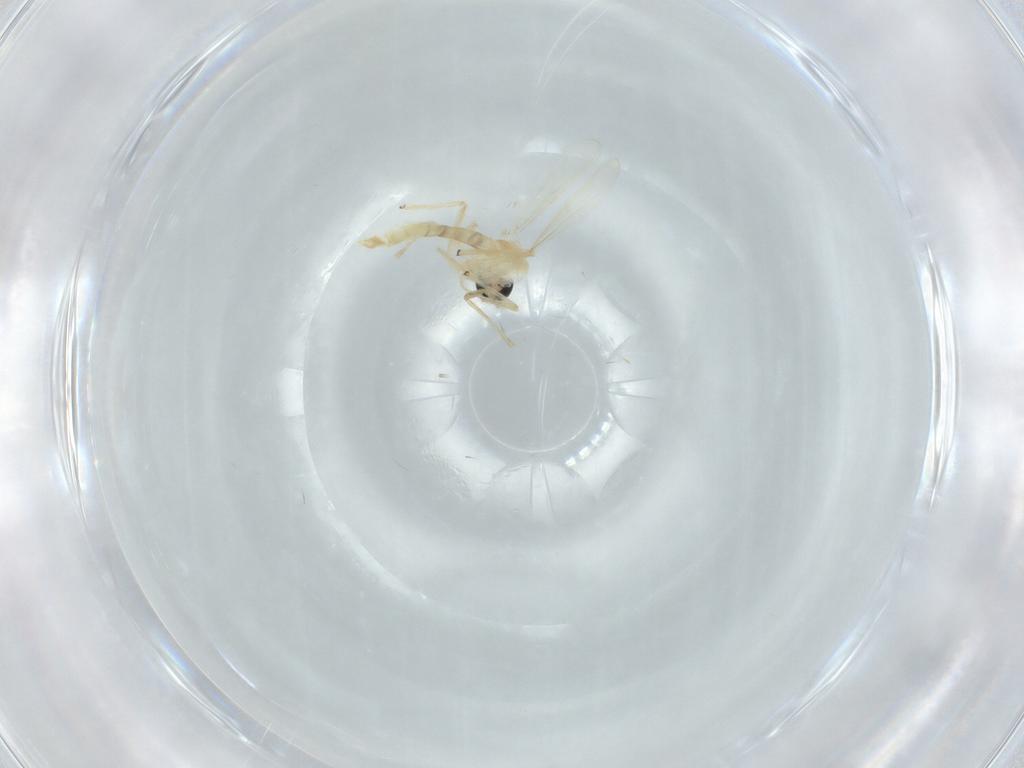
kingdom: Animalia
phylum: Arthropoda
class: Insecta
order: Diptera
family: Chironomidae
